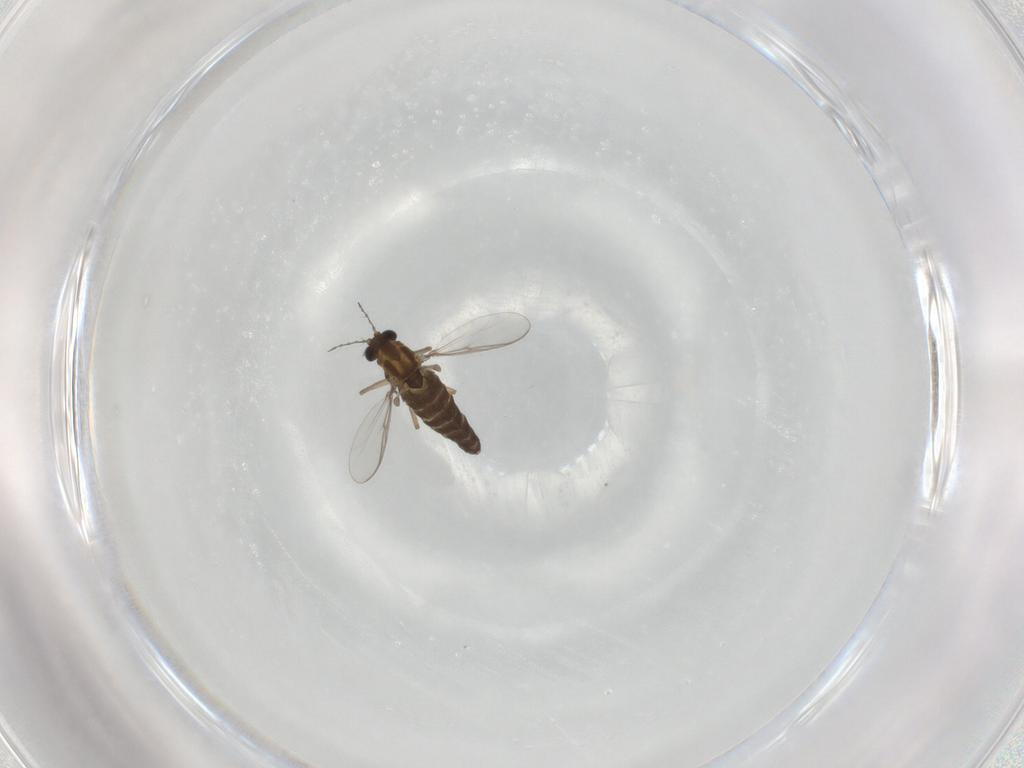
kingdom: Animalia
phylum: Arthropoda
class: Insecta
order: Diptera
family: Chironomidae
